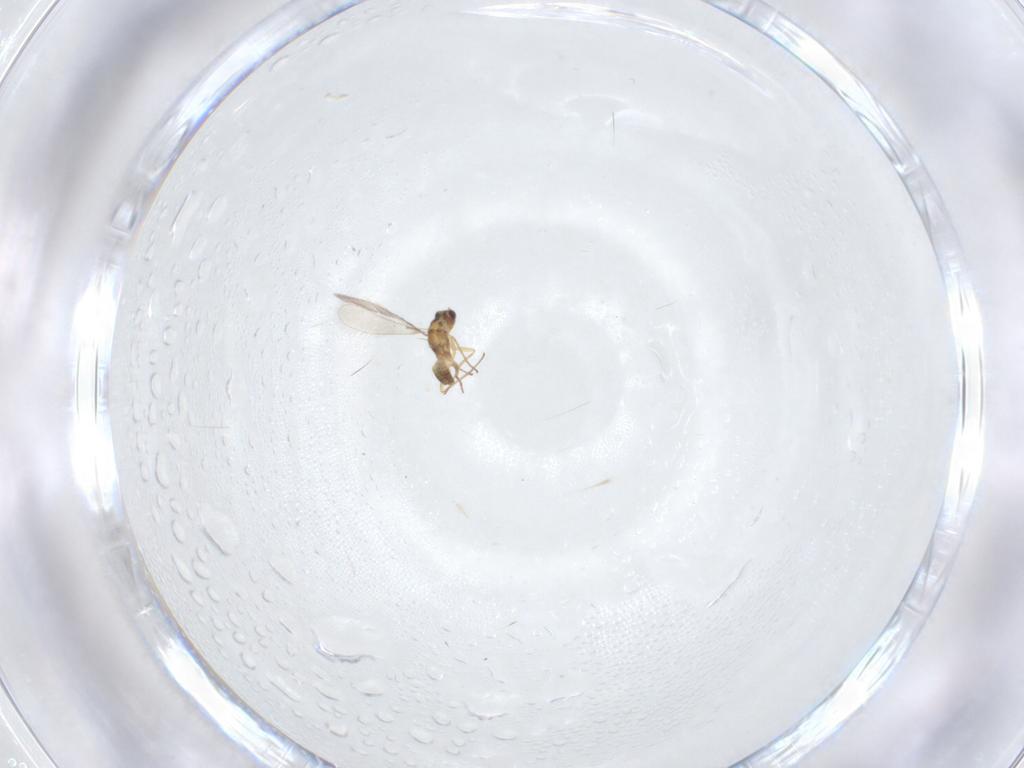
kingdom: Animalia
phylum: Arthropoda
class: Insecta
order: Hymenoptera
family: Mymaridae
